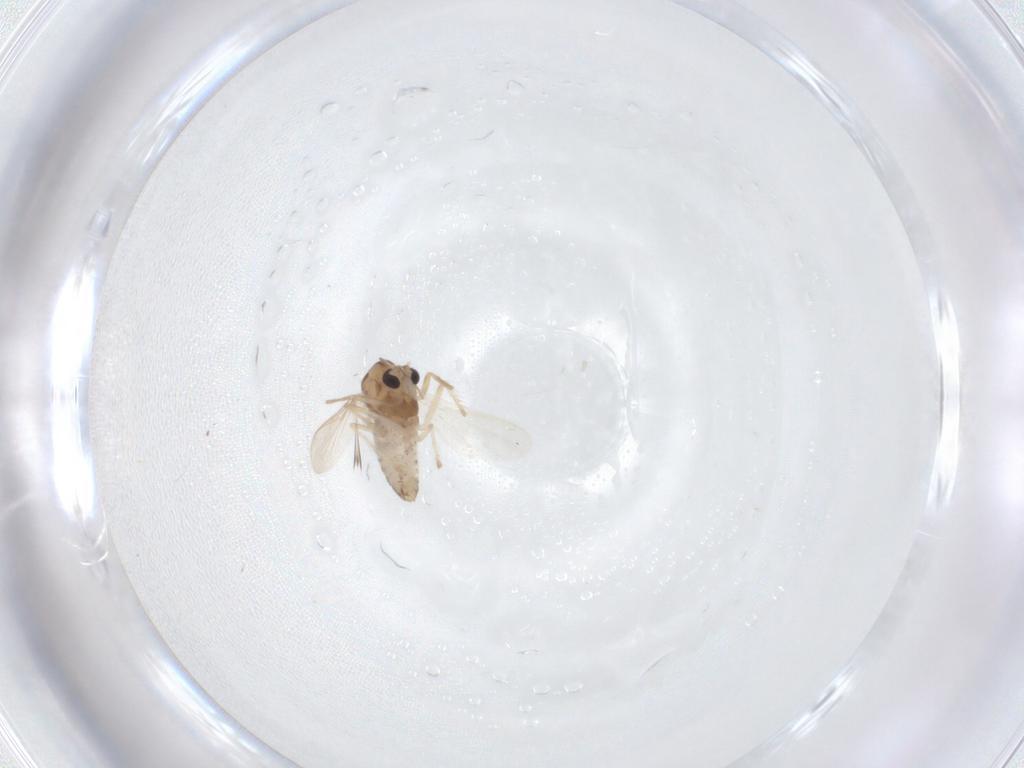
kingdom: Animalia
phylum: Arthropoda
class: Insecta
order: Diptera
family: Chironomidae
